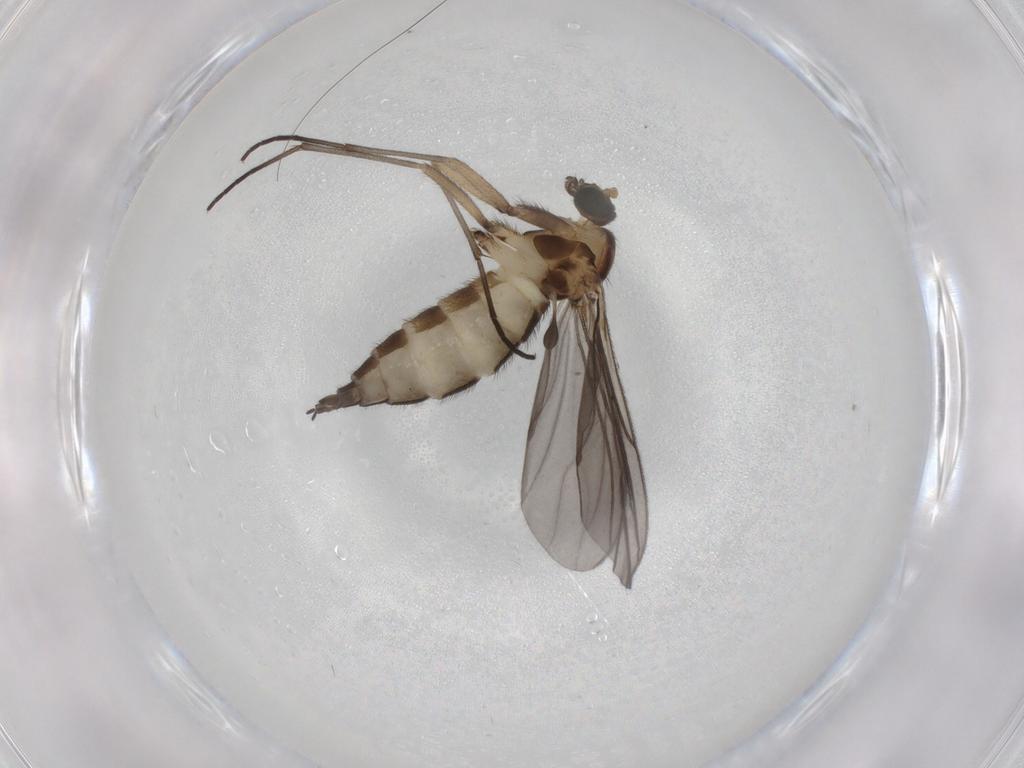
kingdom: Animalia
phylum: Arthropoda
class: Insecta
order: Diptera
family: Sciaridae
